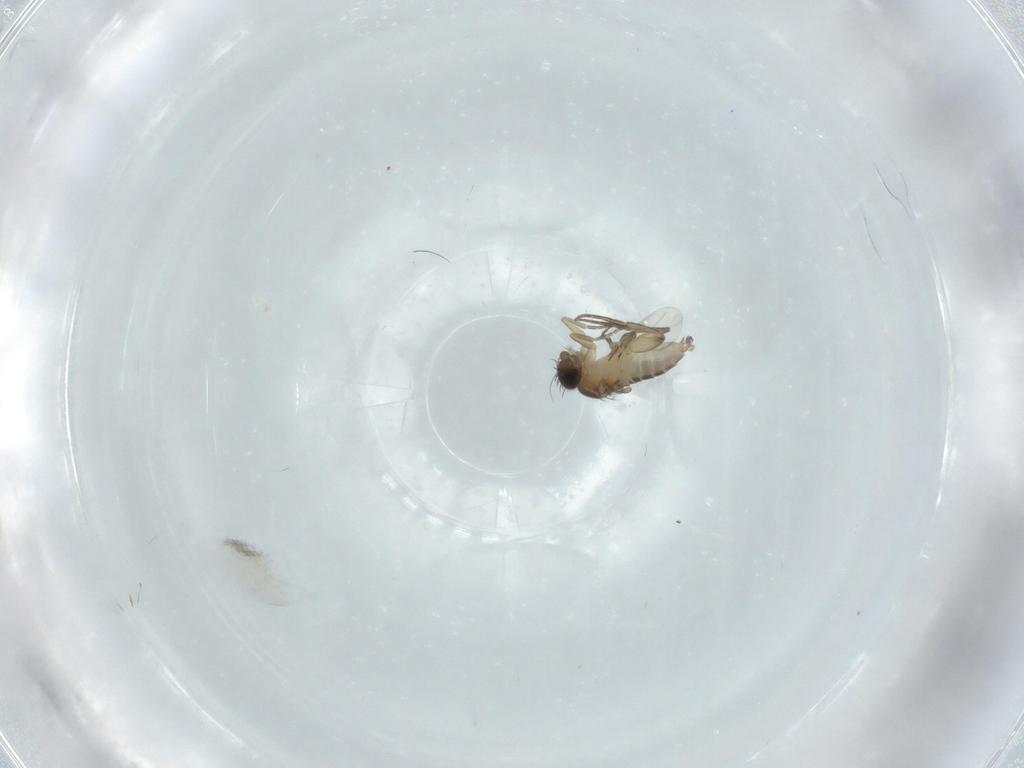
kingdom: Animalia
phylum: Arthropoda
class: Insecta
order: Diptera
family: Phoridae
